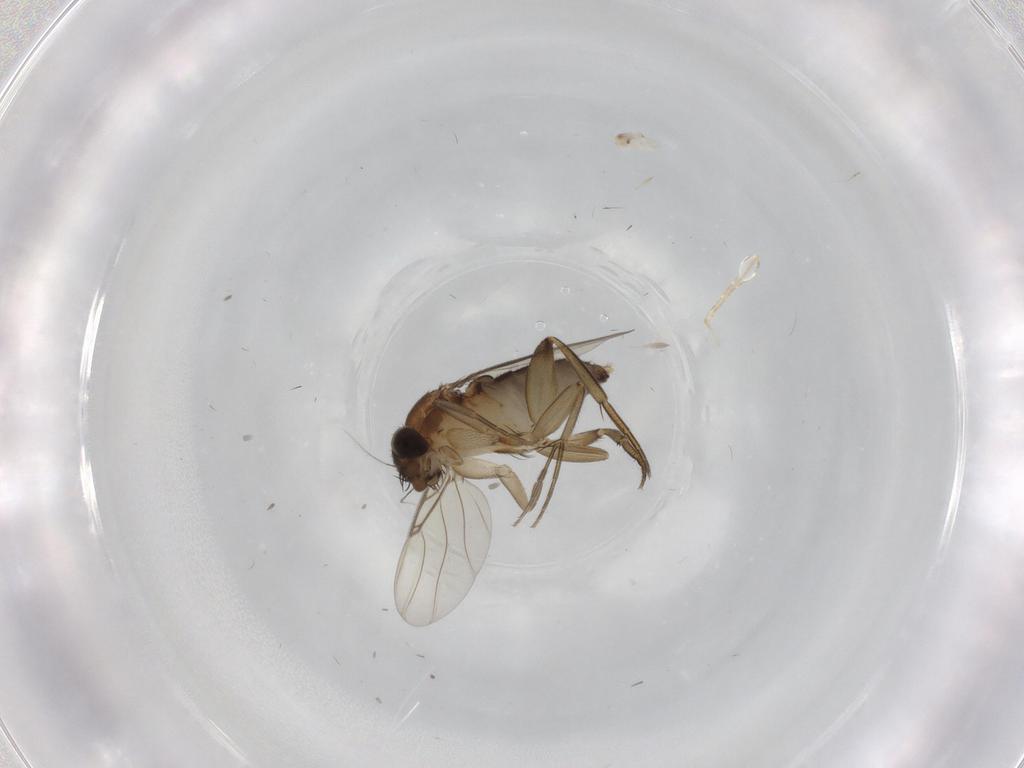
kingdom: Animalia
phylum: Arthropoda
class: Insecta
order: Diptera
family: Phoridae
